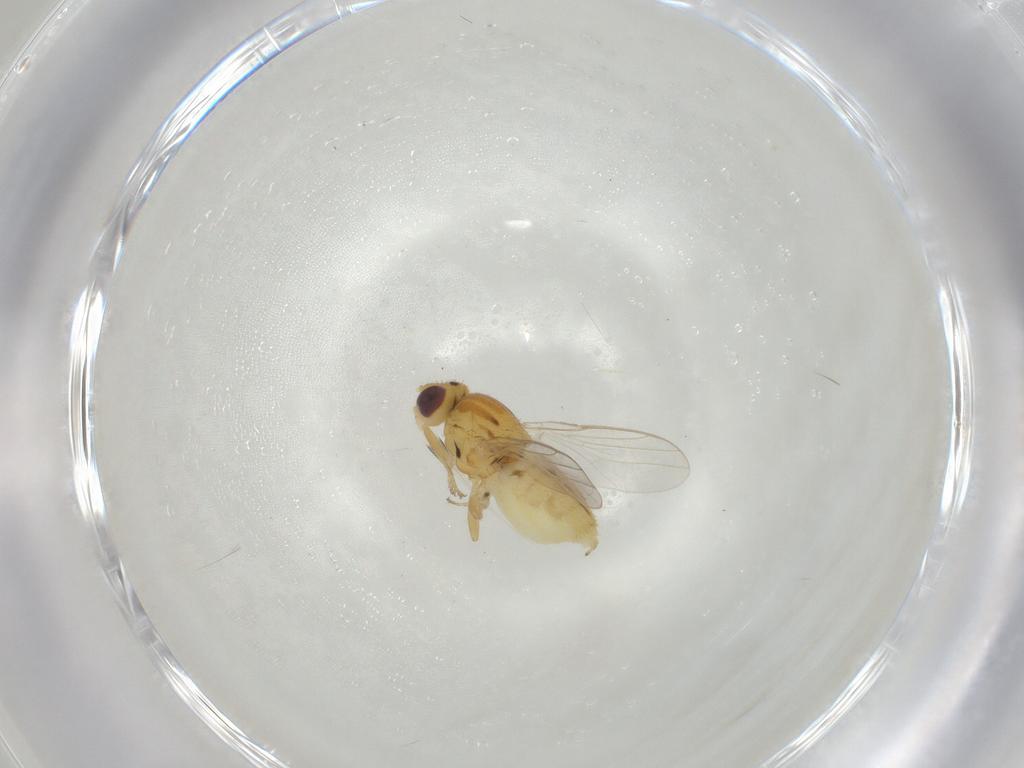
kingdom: Animalia
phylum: Arthropoda
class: Insecta
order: Diptera
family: Chloropidae
